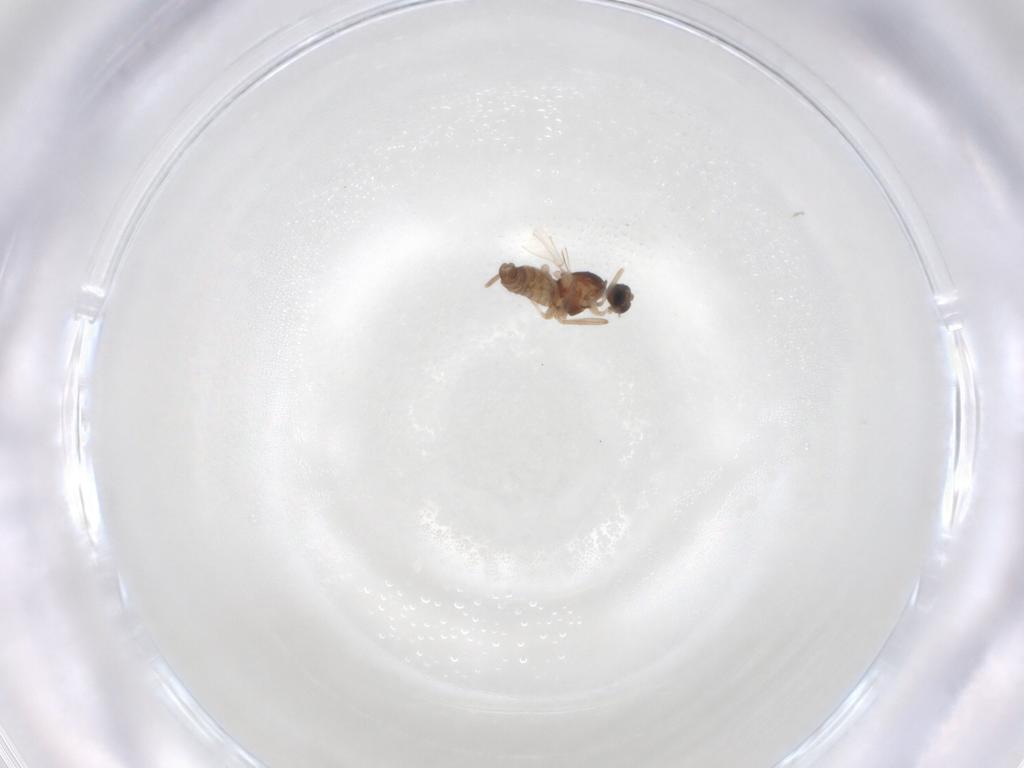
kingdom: Animalia
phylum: Arthropoda
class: Insecta
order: Diptera
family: Cecidomyiidae
